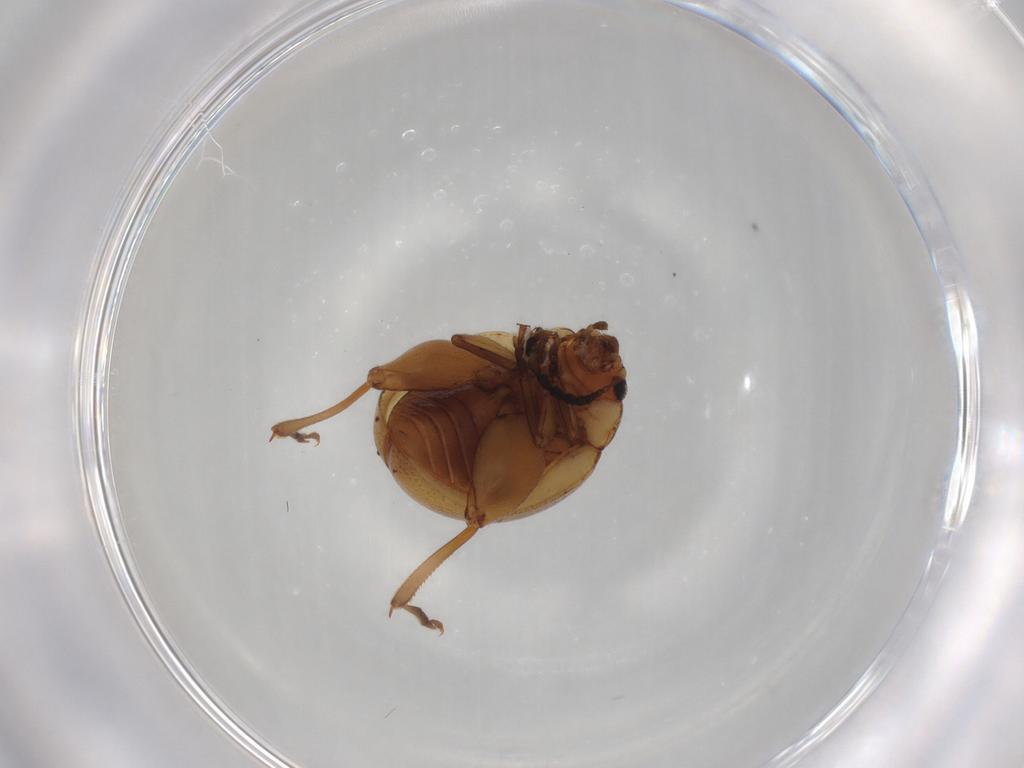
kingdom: Animalia
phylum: Arthropoda
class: Insecta
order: Coleoptera
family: Chrysomelidae
